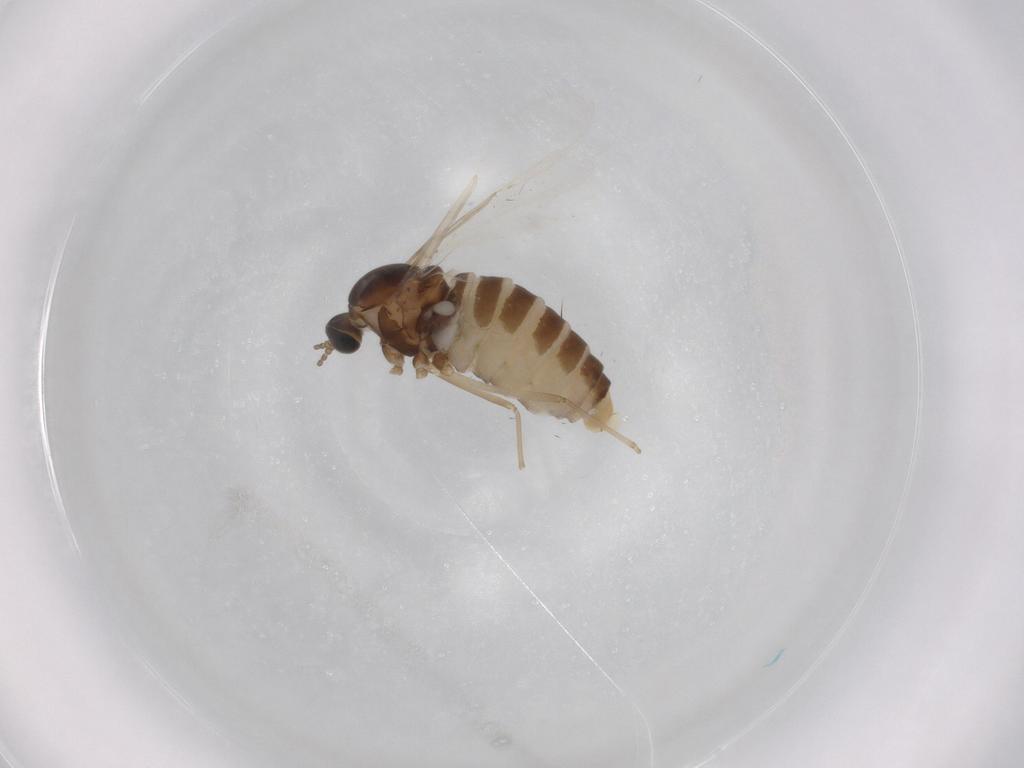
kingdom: Animalia
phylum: Arthropoda
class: Insecta
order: Diptera
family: Cecidomyiidae
